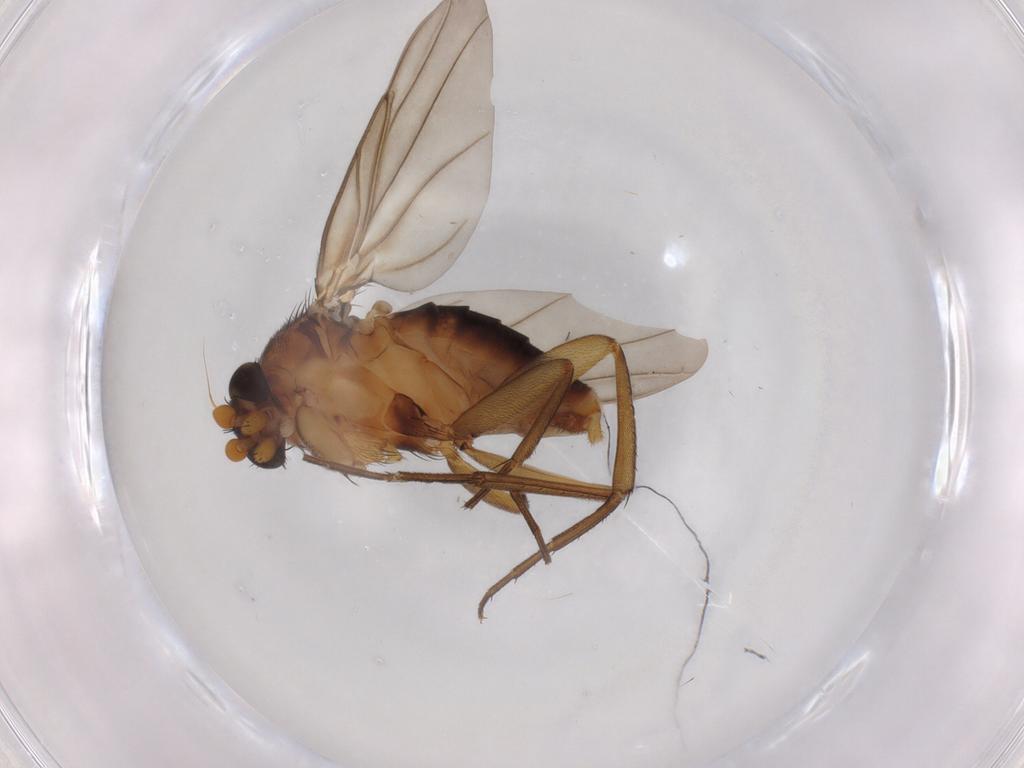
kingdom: Animalia
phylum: Arthropoda
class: Insecta
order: Diptera
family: Phoridae
